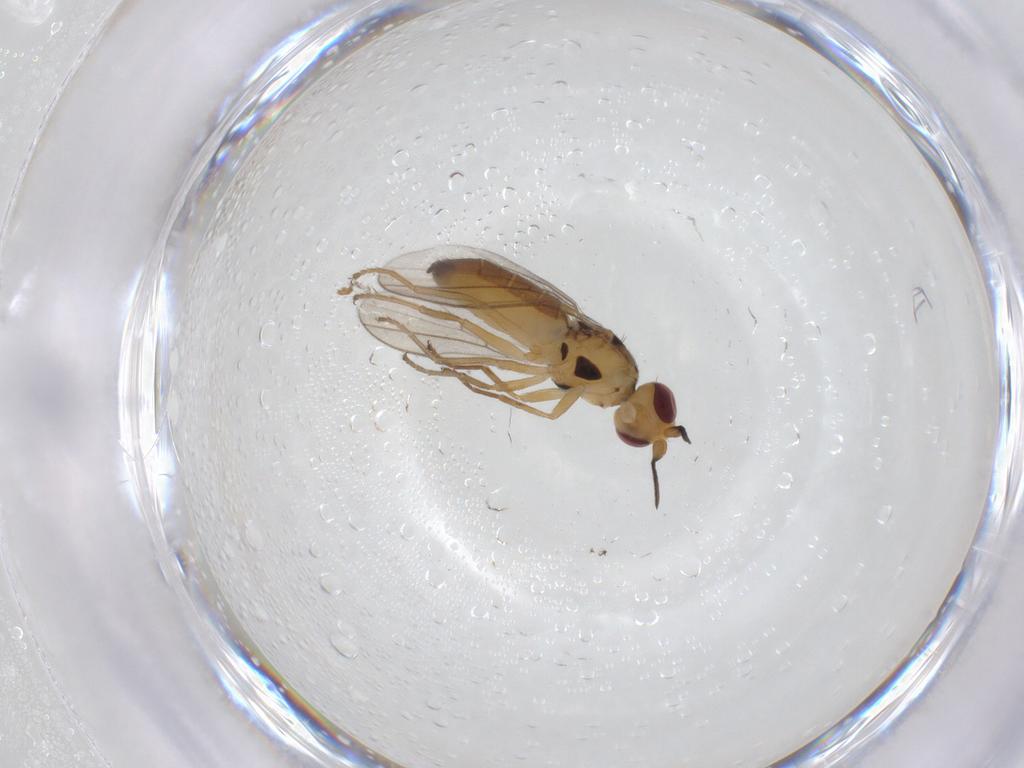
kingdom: Animalia
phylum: Arthropoda
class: Insecta
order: Diptera
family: Chloropidae
